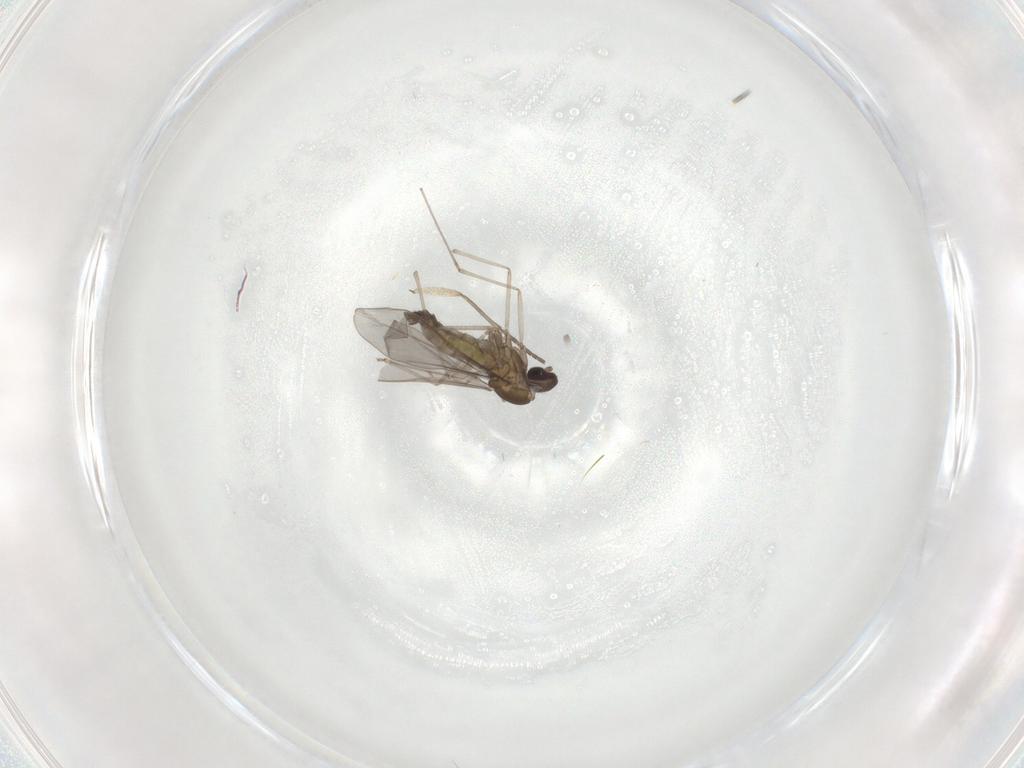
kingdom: Animalia
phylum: Arthropoda
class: Insecta
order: Diptera
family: Cecidomyiidae
